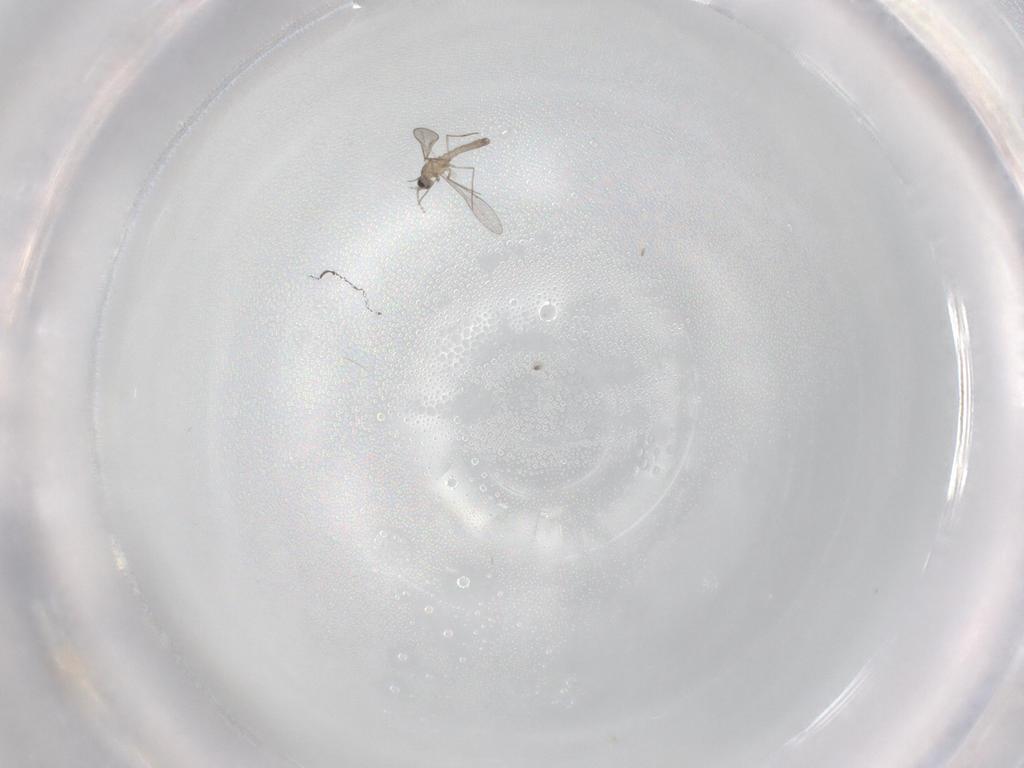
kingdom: Animalia
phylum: Arthropoda
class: Insecta
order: Diptera
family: Cecidomyiidae
